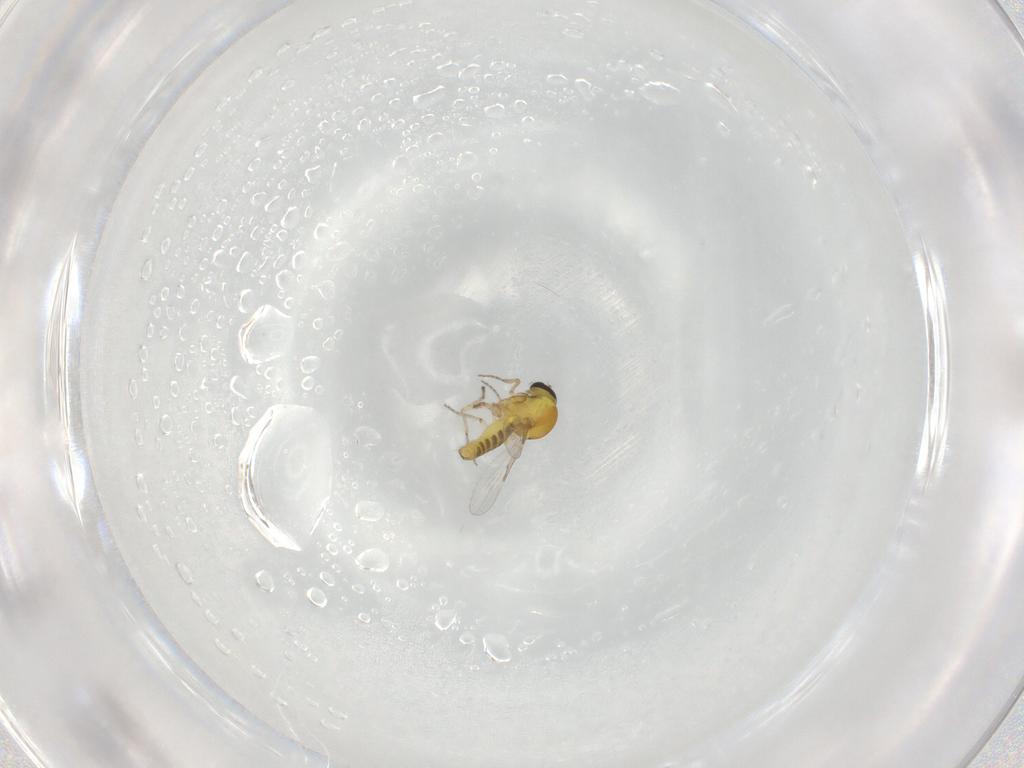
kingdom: Animalia
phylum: Arthropoda
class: Insecta
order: Diptera
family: Ceratopogonidae
